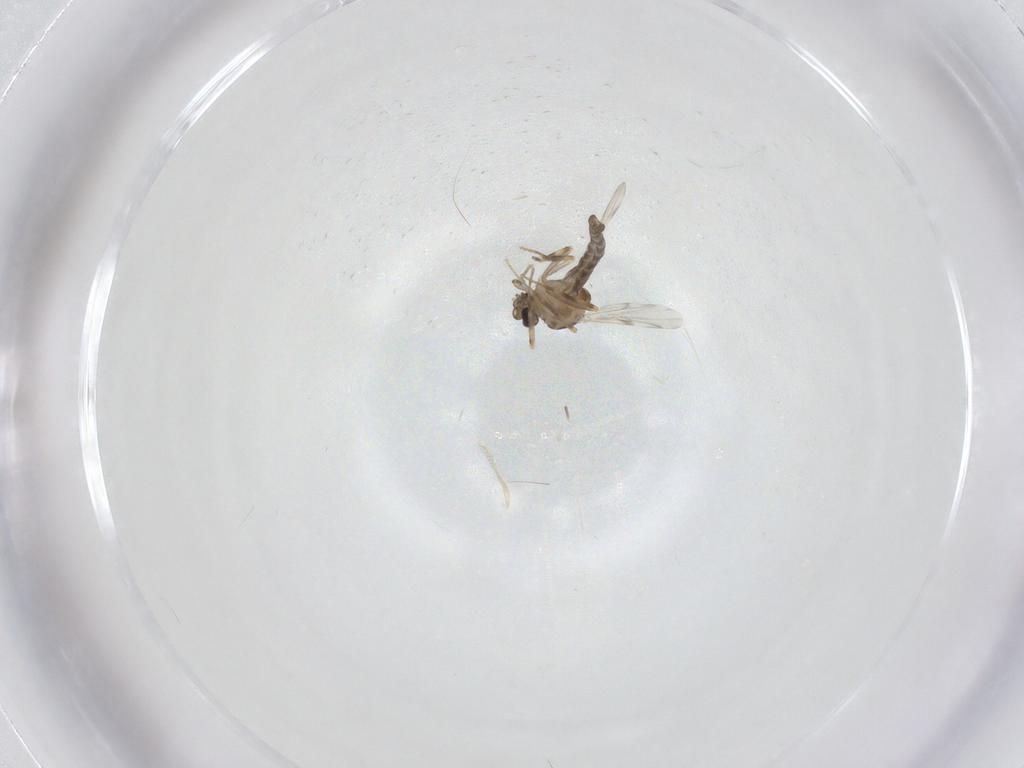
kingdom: Animalia
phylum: Arthropoda
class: Insecta
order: Diptera
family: Ceratopogonidae
